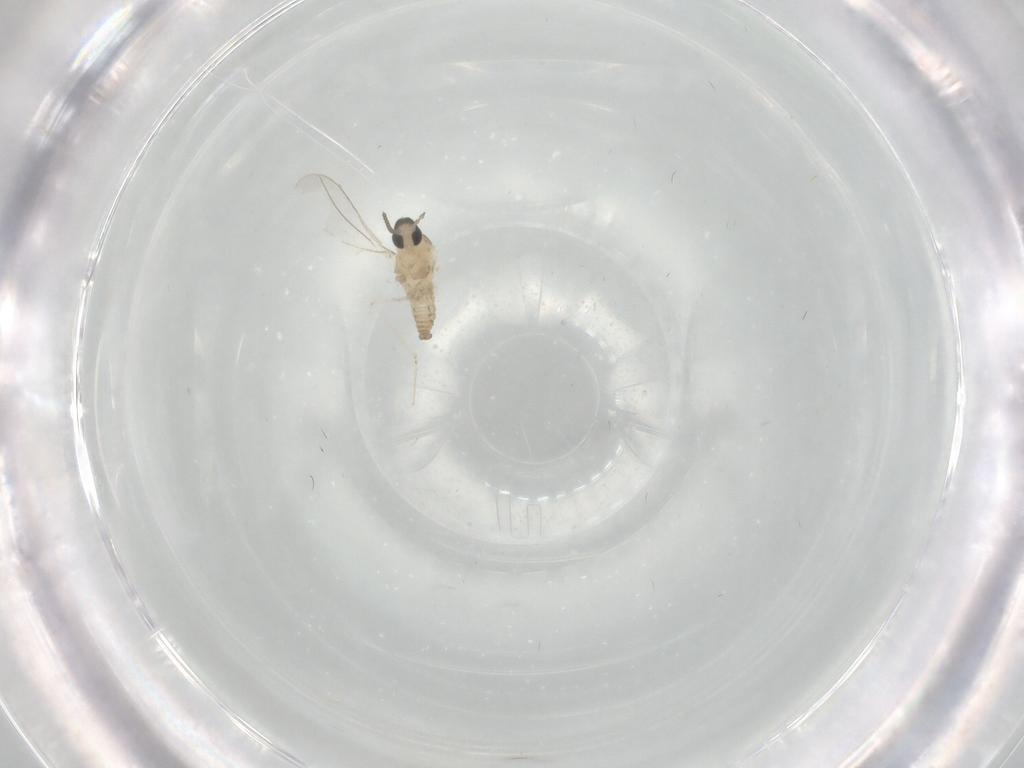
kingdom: Animalia
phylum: Arthropoda
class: Insecta
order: Diptera
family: Cecidomyiidae
